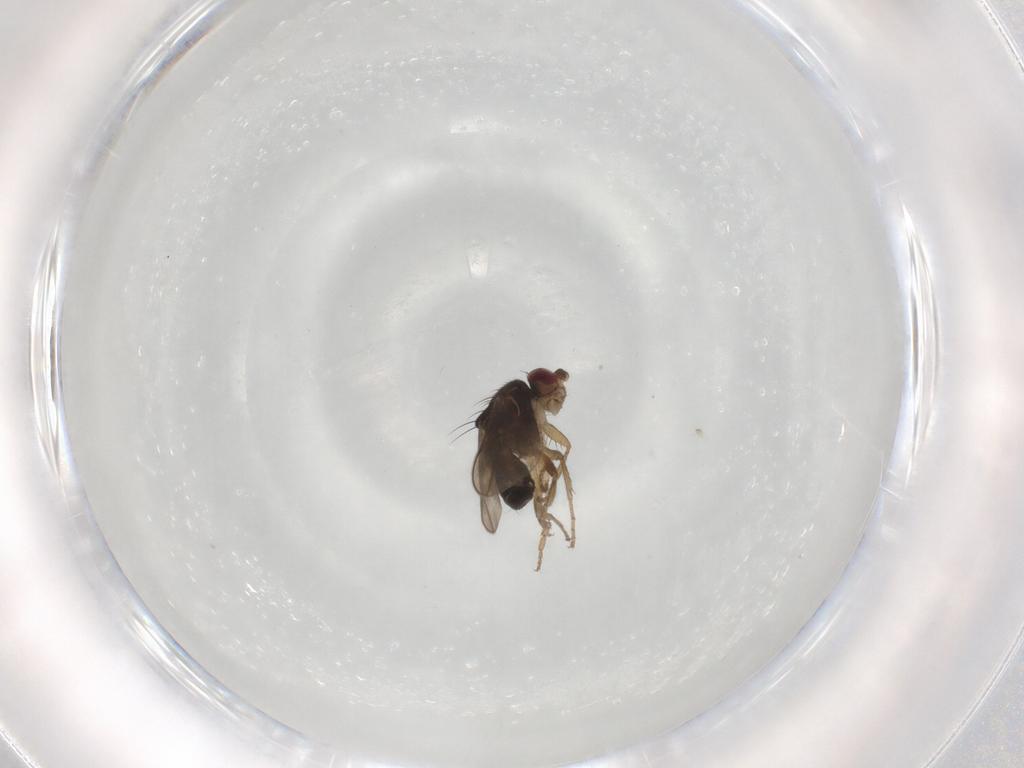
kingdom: Animalia
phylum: Arthropoda
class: Insecta
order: Diptera
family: Sphaeroceridae
